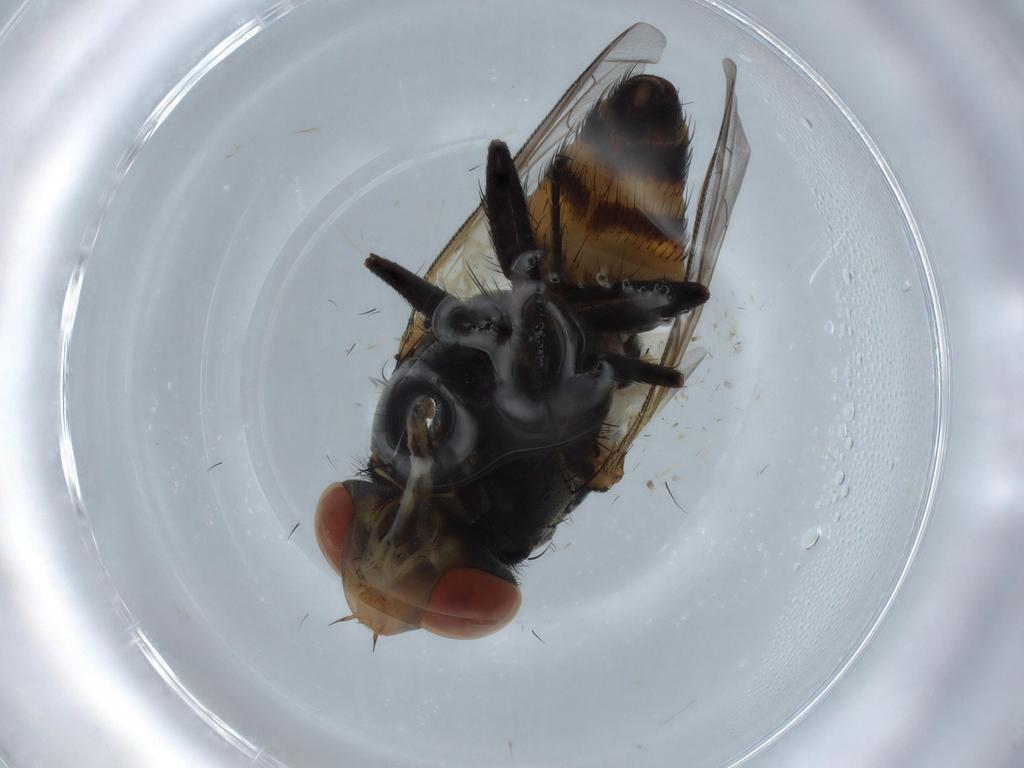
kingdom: Animalia
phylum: Arthropoda
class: Insecta
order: Diptera
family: Sarcophagidae
